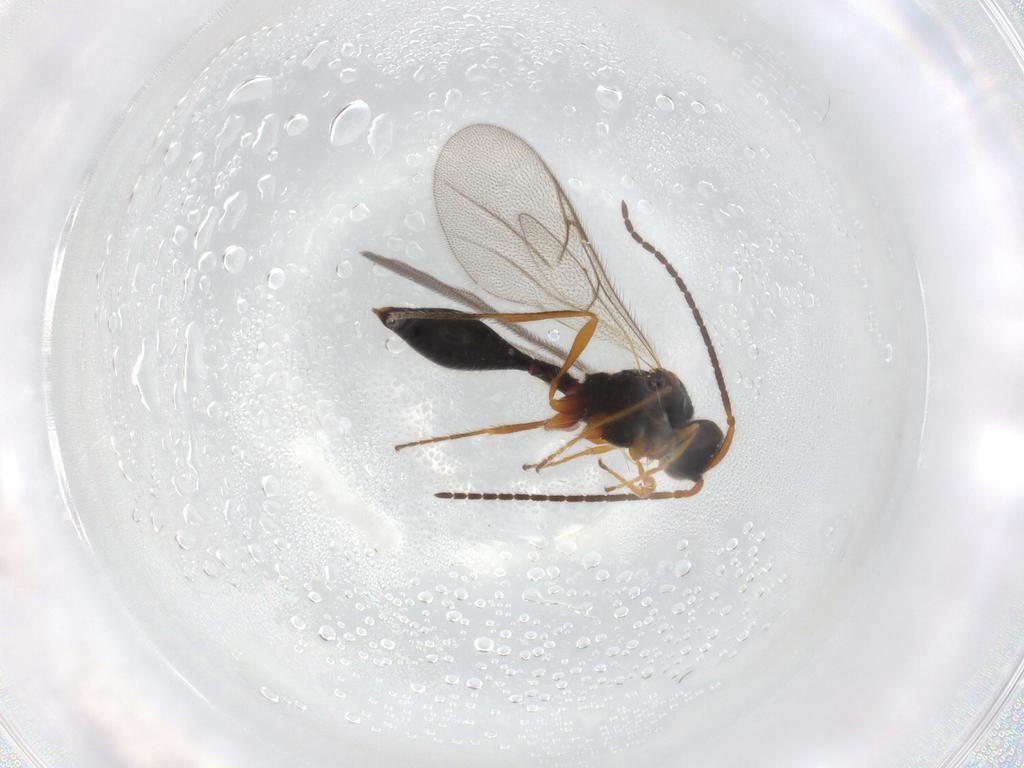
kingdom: Animalia
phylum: Arthropoda
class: Insecta
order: Hymenoptera
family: Diapriidae
